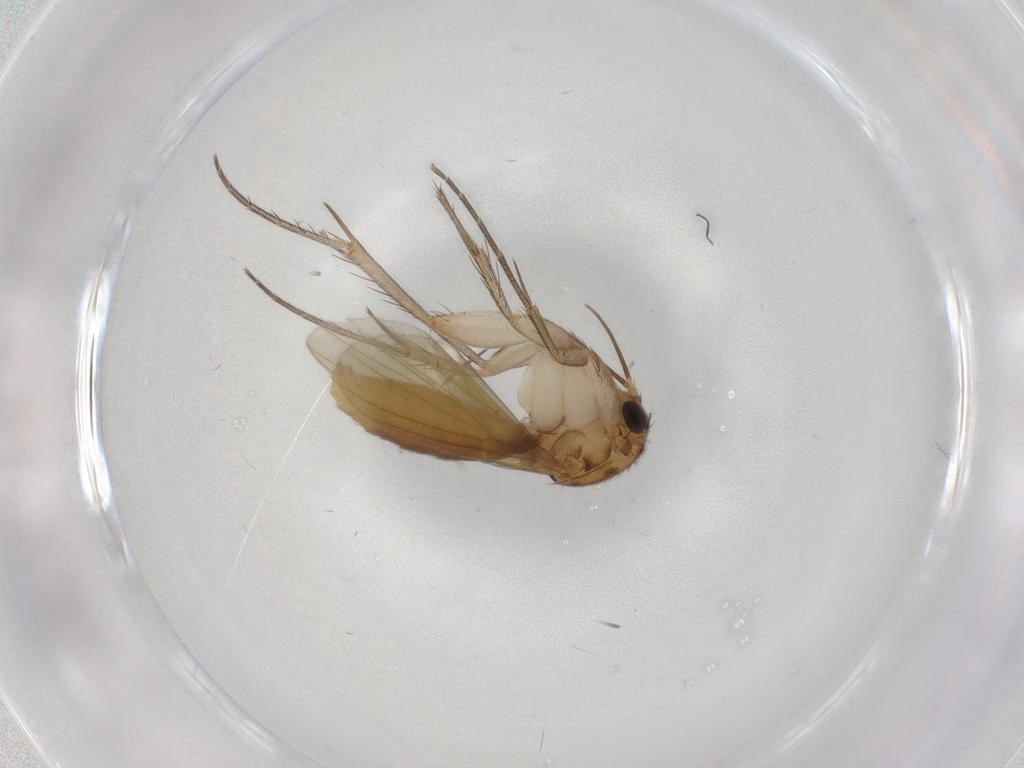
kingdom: Animalia
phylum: Arthropoda
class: Insecta
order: Diptera
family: Mycetophilidae
